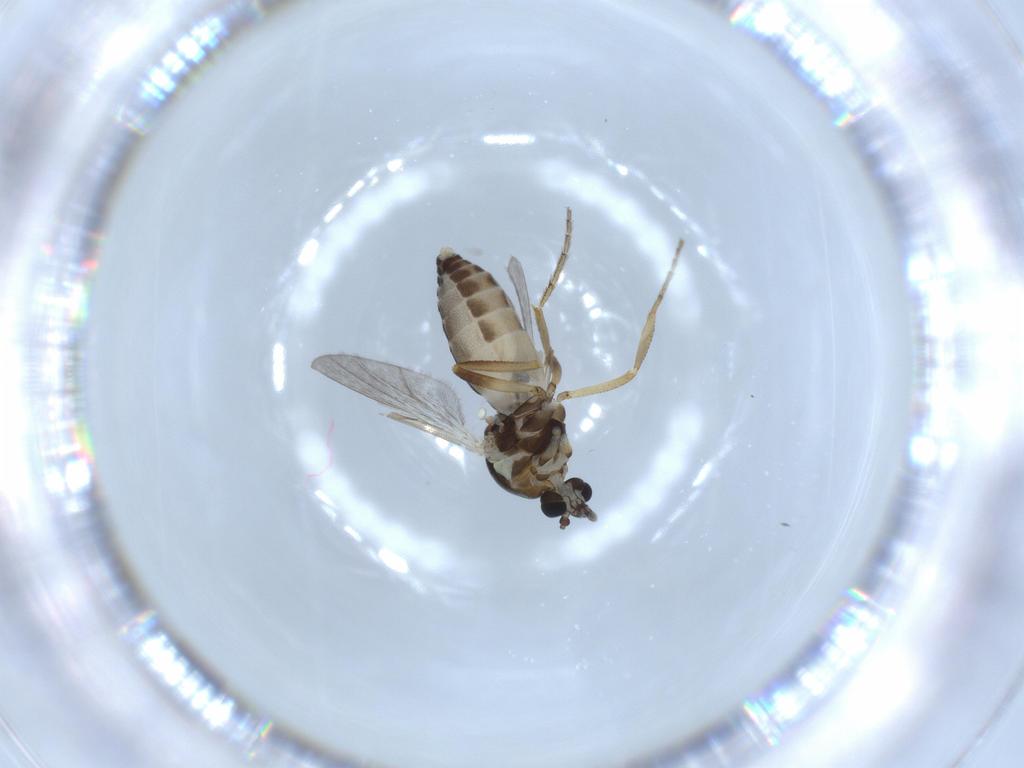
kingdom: Animalia
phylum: Arthropoda
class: Insecta
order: Diptera
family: Ceratopogonidae
